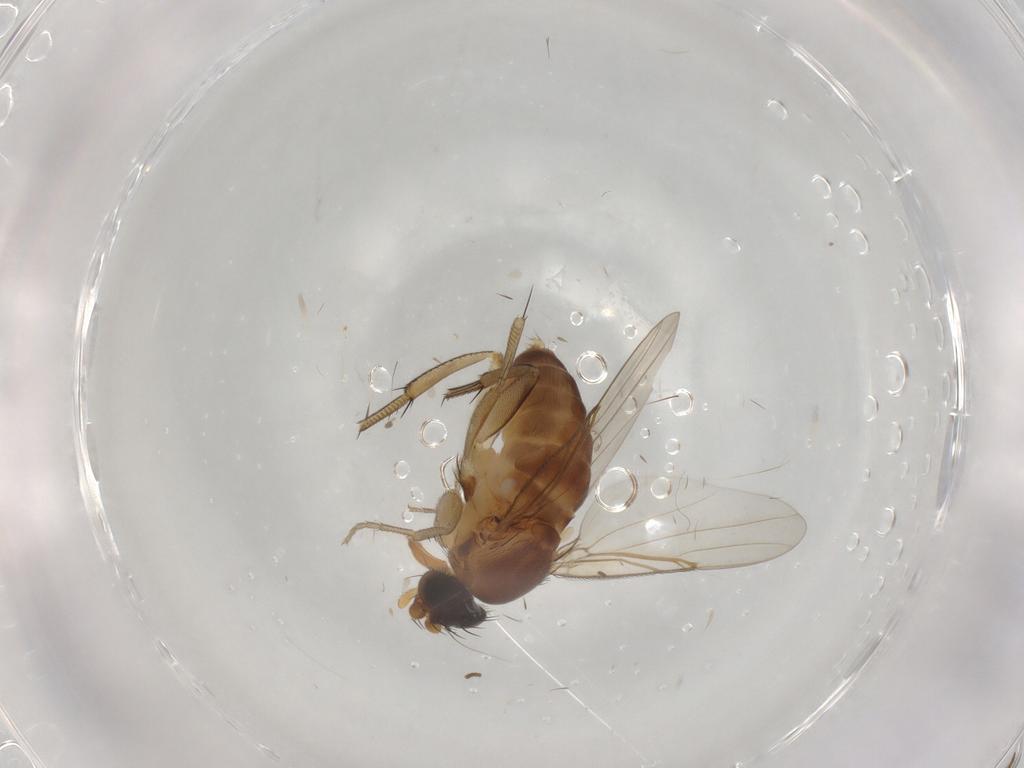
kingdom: Animalia
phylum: Arthropoda
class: Insecta
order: Diptera
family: Phoridae
